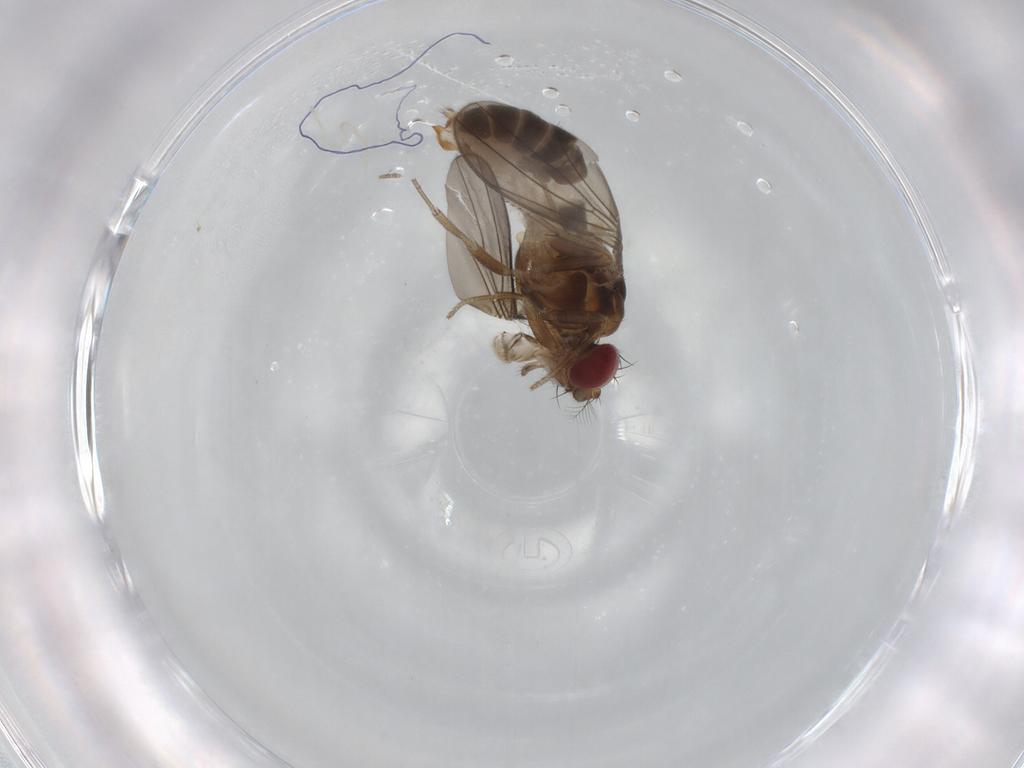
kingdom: Animalia
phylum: Arthropoda
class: Insecta
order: Diptera
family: Drosophilidae
